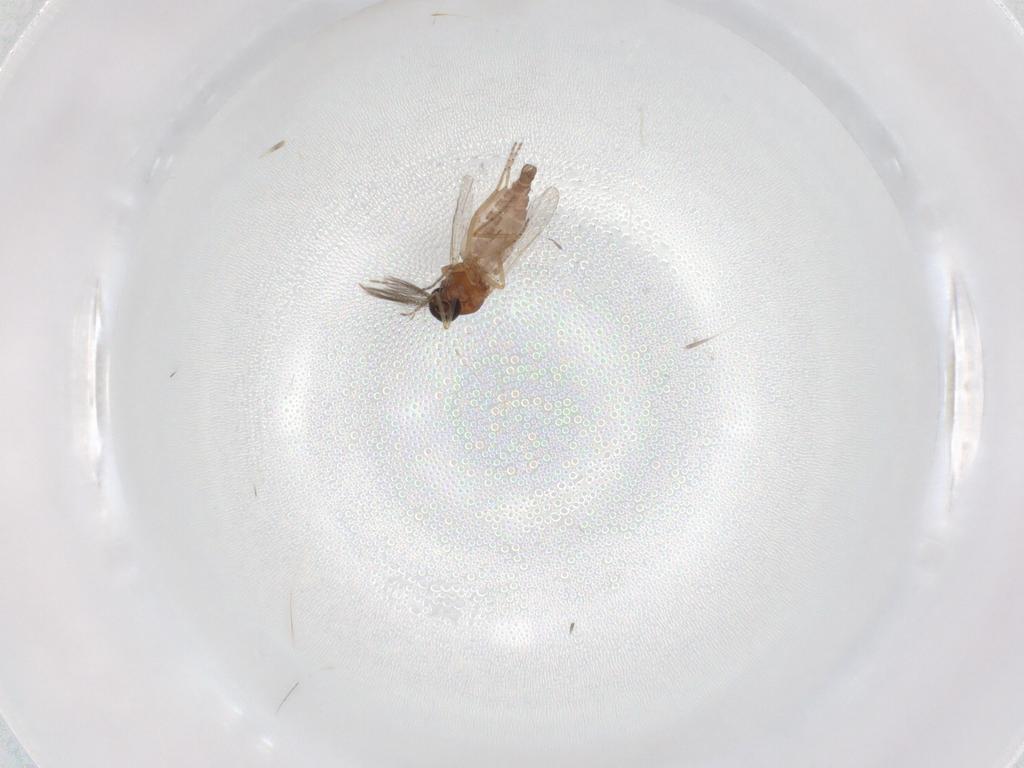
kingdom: Animalia
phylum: Arthropoda
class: Insecta
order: Diptera
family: Ceratopogonidae
